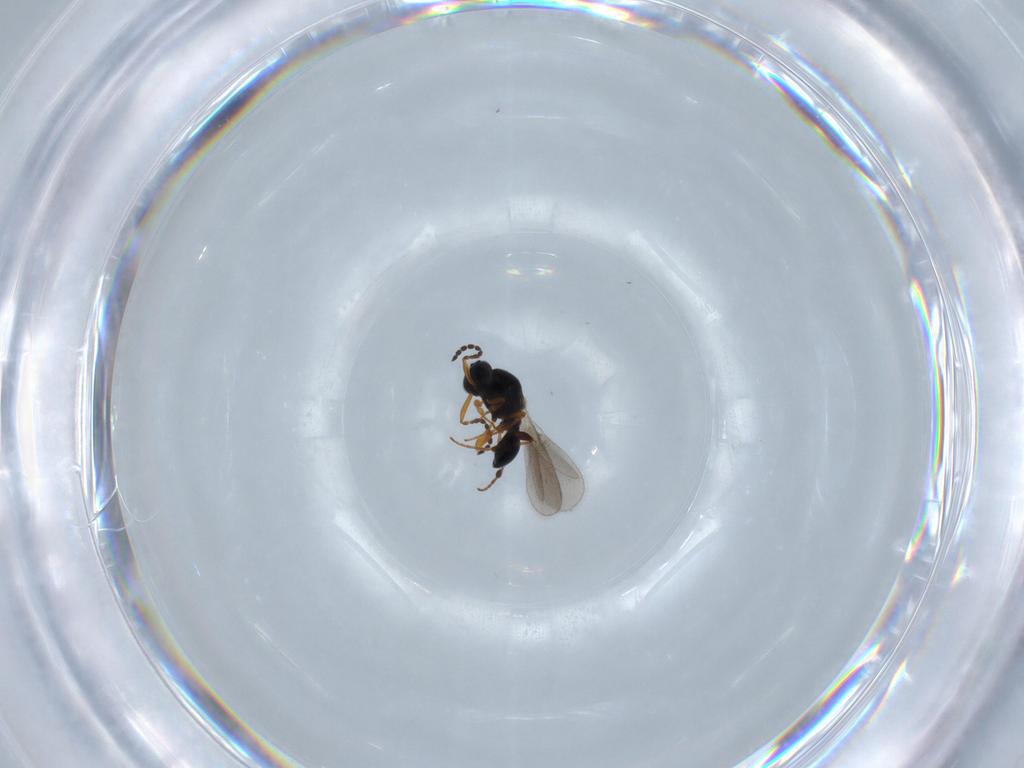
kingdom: Animalia
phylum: Arthropoda
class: Insecta
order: Hymenoptera
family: Platygastridae
